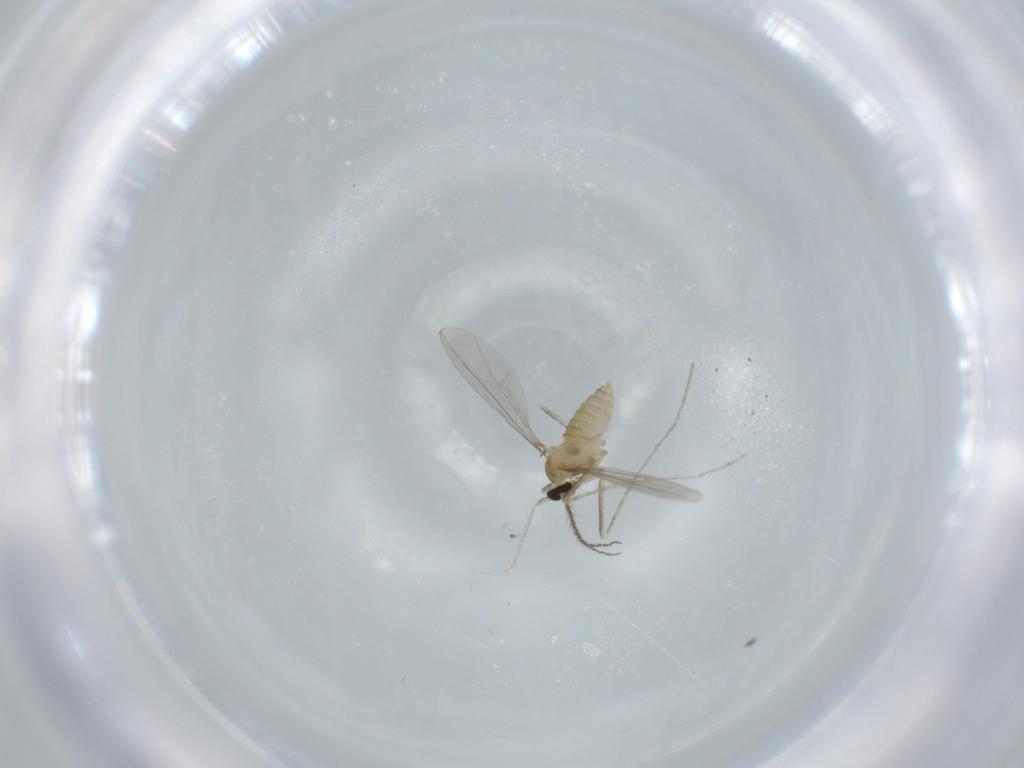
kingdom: Animalia
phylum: Arthropoda
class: Insecta
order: Diptera
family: Cecidomyiidae
